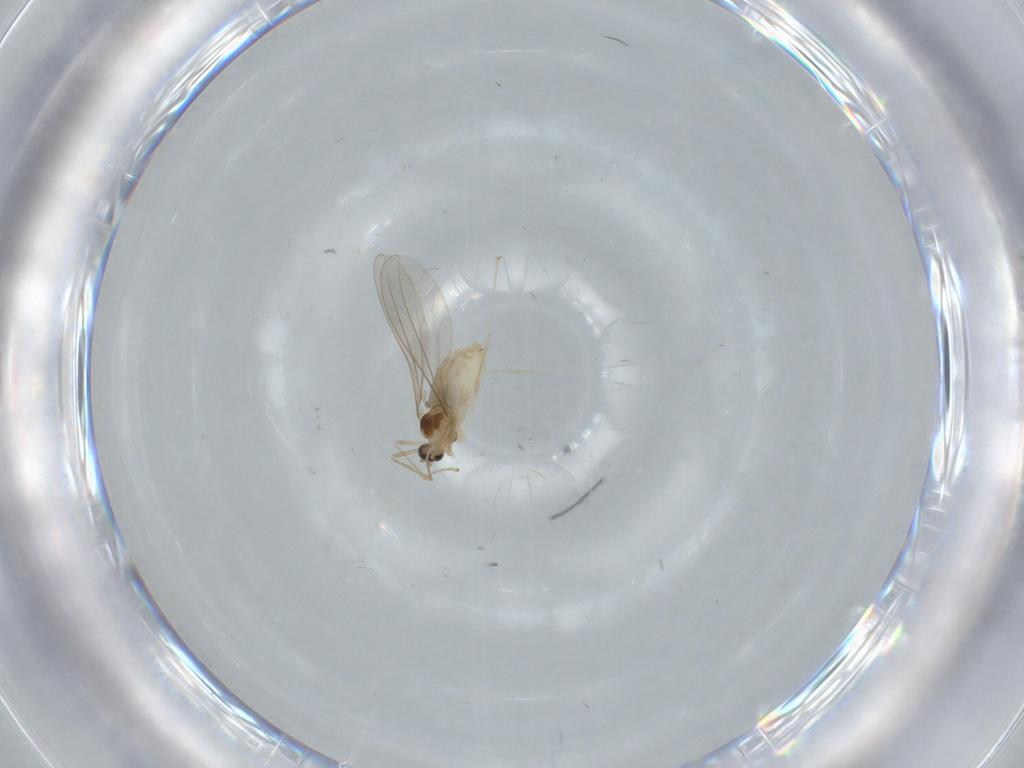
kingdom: Animalia
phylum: Arthropoda
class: Insecta
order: Diptera
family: Cecidomyiidae
